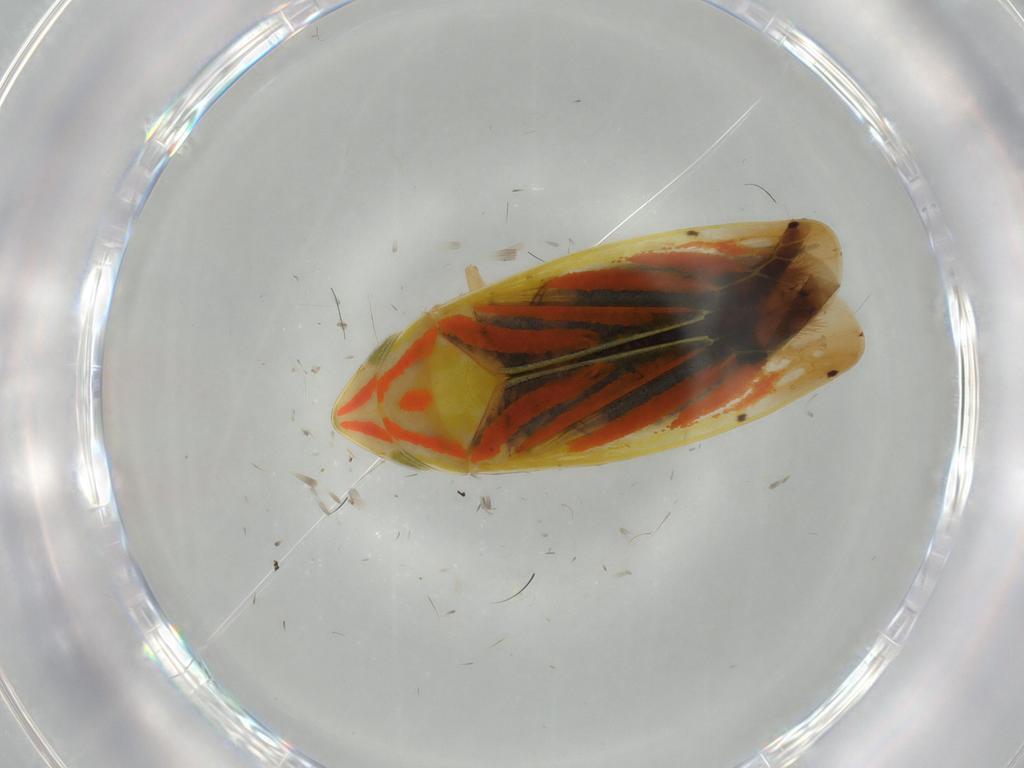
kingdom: Animalia
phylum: Arthropoda
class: Insecta
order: Hemiptera
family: Cicadellidae
